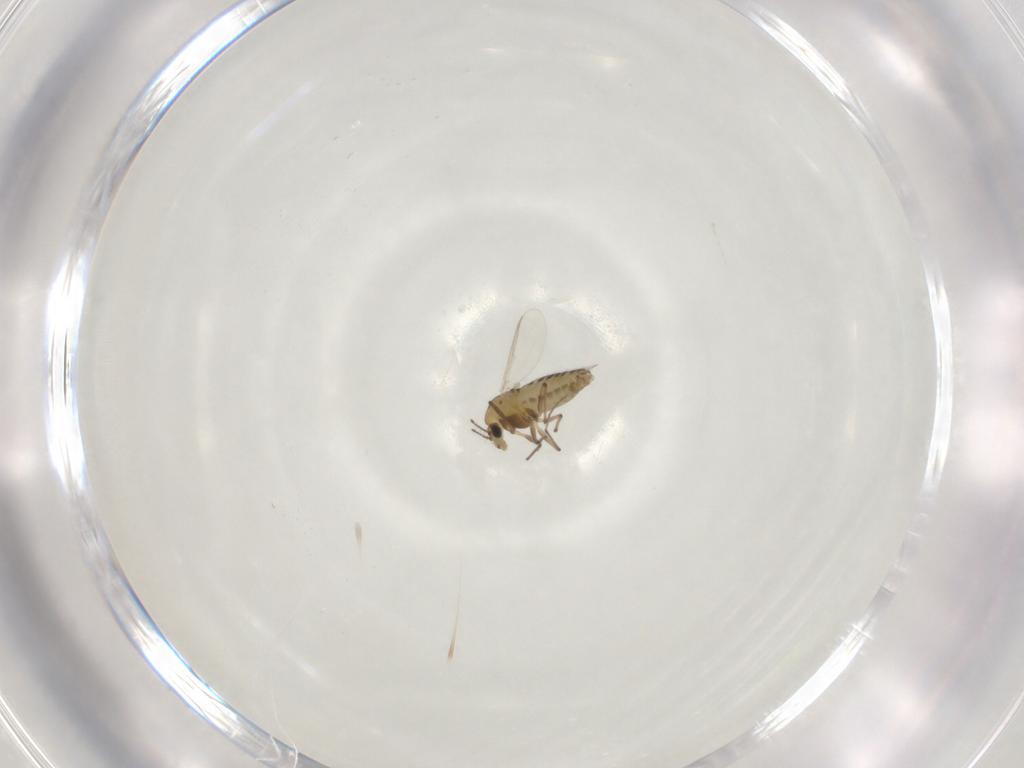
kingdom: Animalia
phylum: Arthropoda
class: Insecta
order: Diptera
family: Chironomidae
